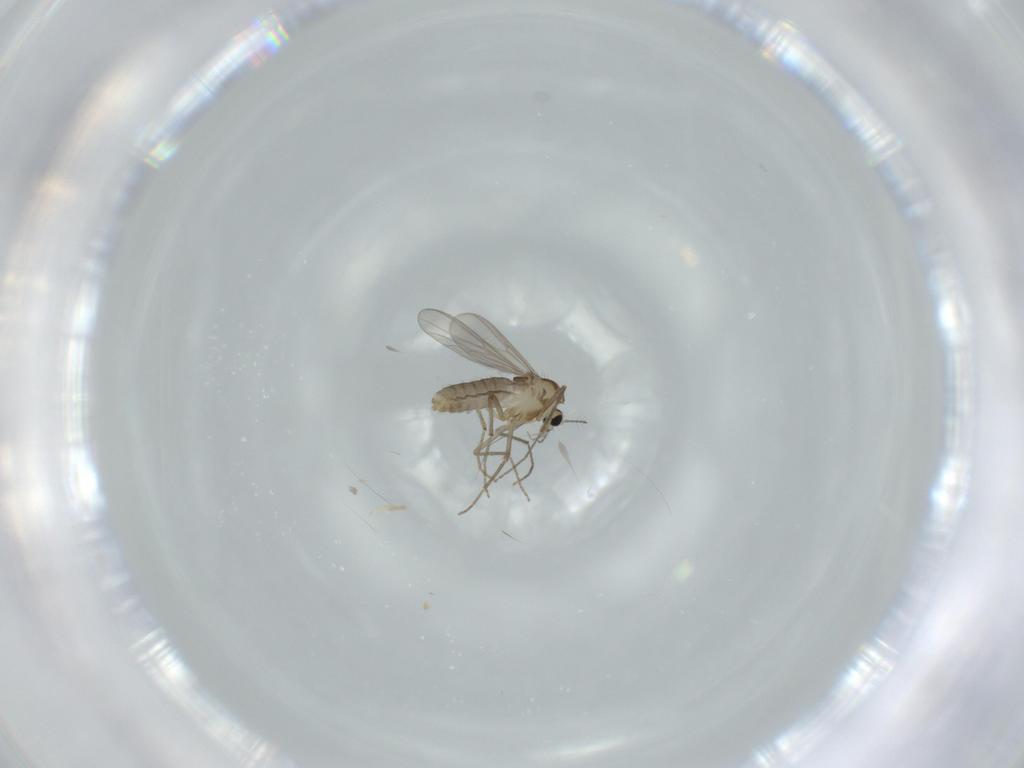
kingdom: Animalia
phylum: Arthropoda
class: Insecta
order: Diptera
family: Chironomidae
